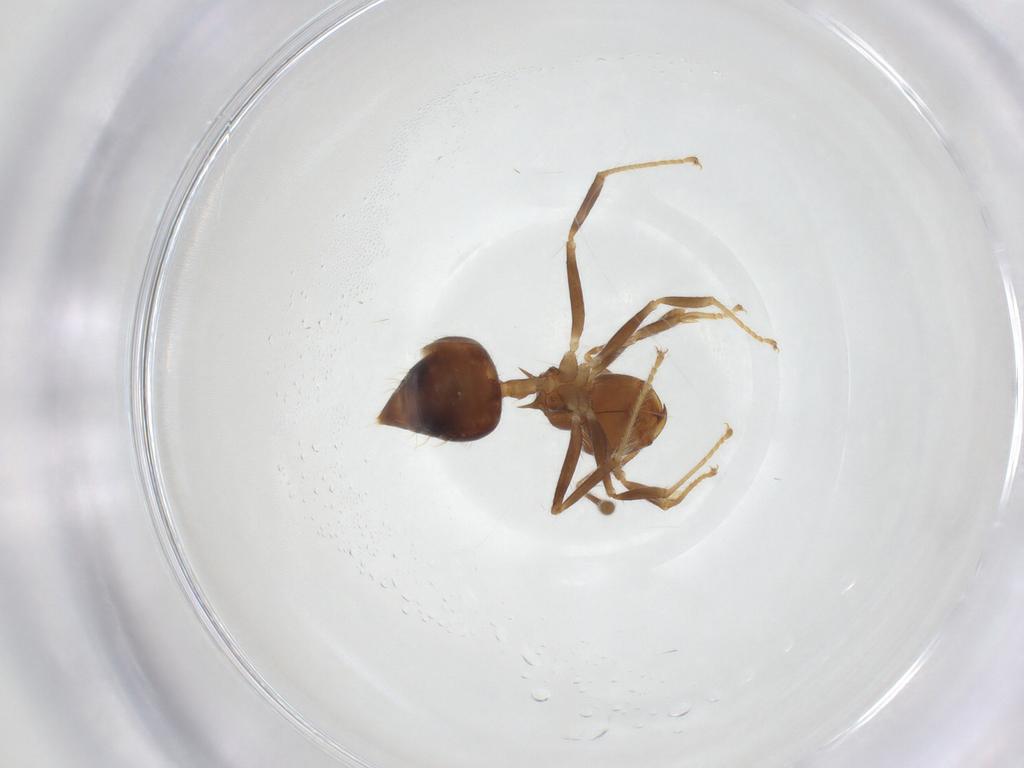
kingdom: Animalia
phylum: Arthropoda
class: Insecta
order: Hymenoptera
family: Formicidae
